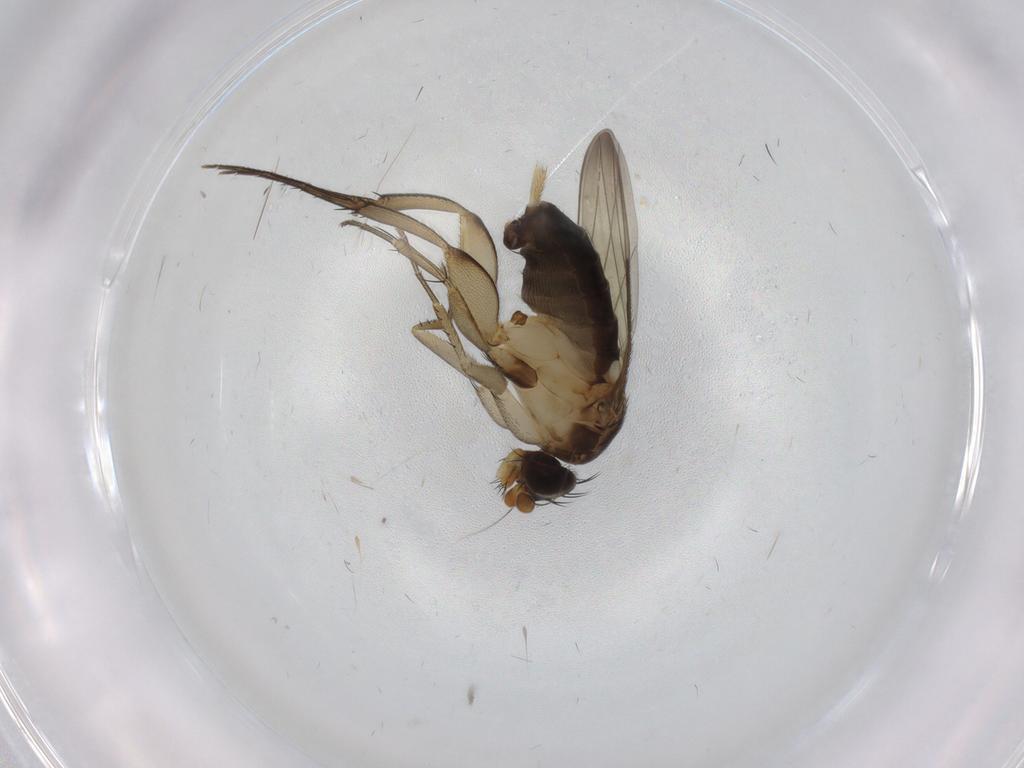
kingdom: Animalia
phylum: Arthropoda
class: Insecta
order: Diptera
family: Phoridae
